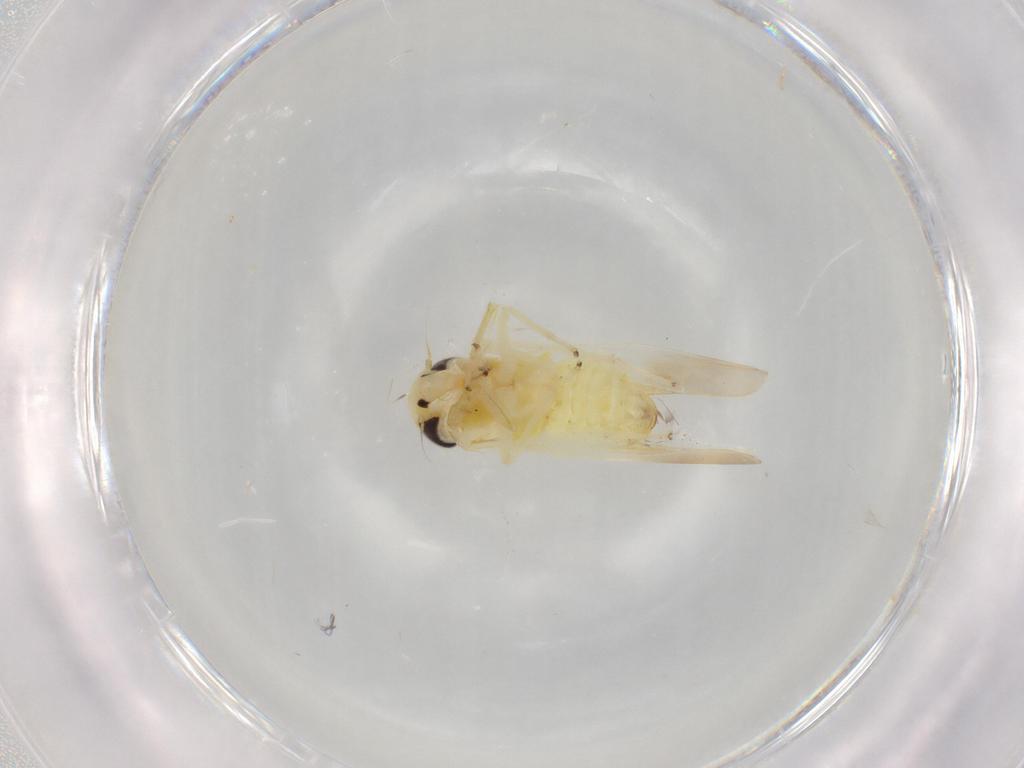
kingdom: Animalia
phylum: Arthropoda
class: Insecta
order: Hemiptera
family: Cicadellidae
